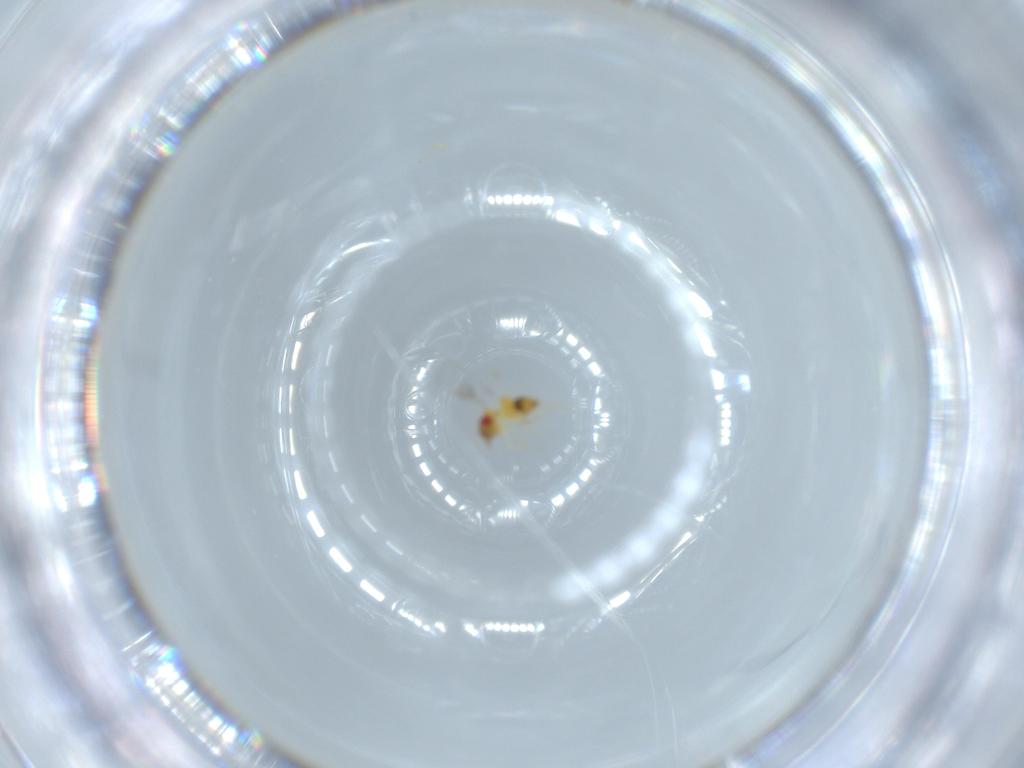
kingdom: Animalia
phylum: Arthropoda
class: Insecta
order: Hymenoptera
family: Trichogrammatidae
